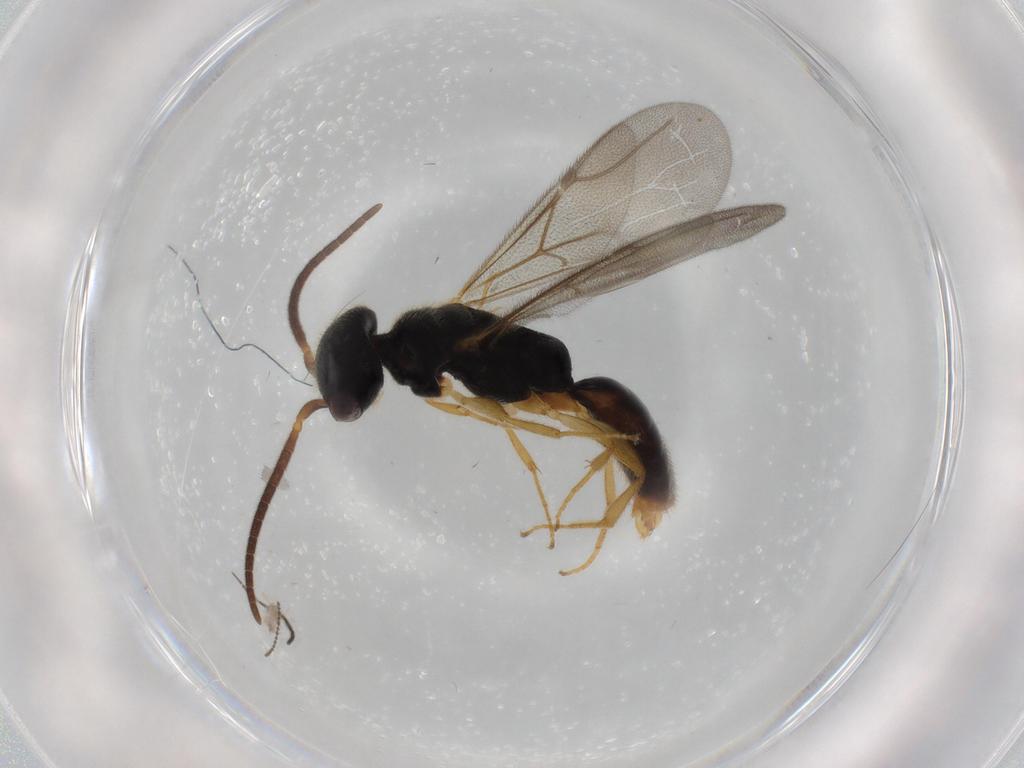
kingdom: Animalia
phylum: Arthropoda
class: Insecta
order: Hymenoptera
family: Bethylidae
